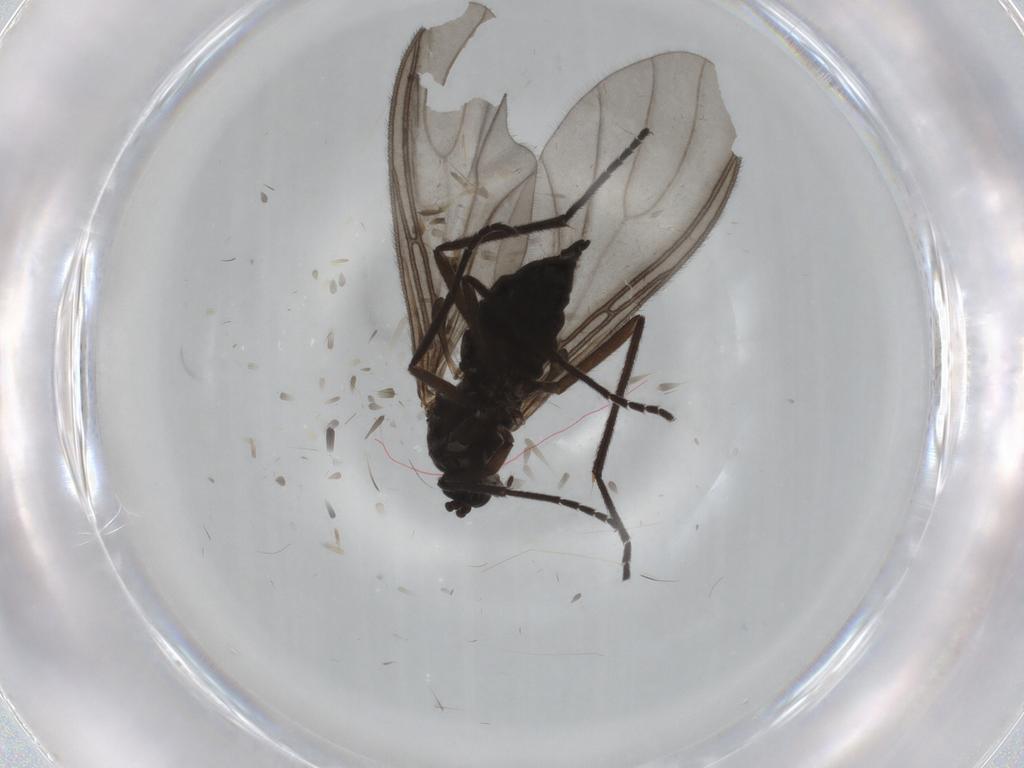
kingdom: Animalia
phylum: Arthropoda
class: Insecta
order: Diptera
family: Sciaridae
